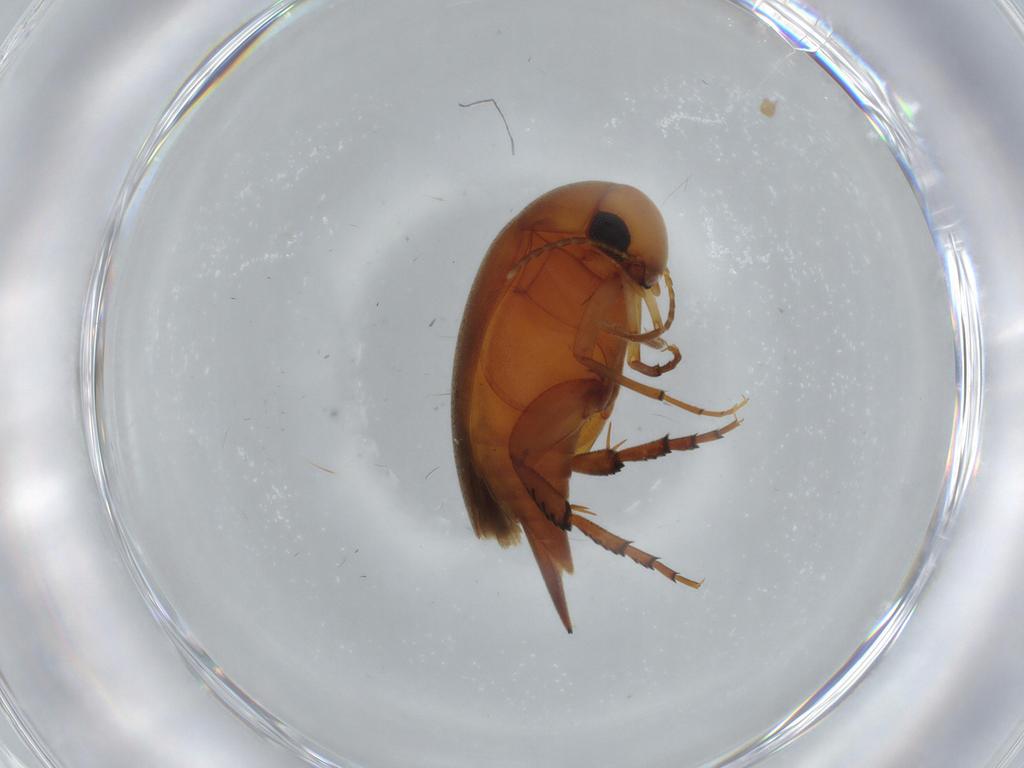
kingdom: Animalia
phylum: Arthropoda
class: Insecta
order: Coleoptera
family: Mordellidae
